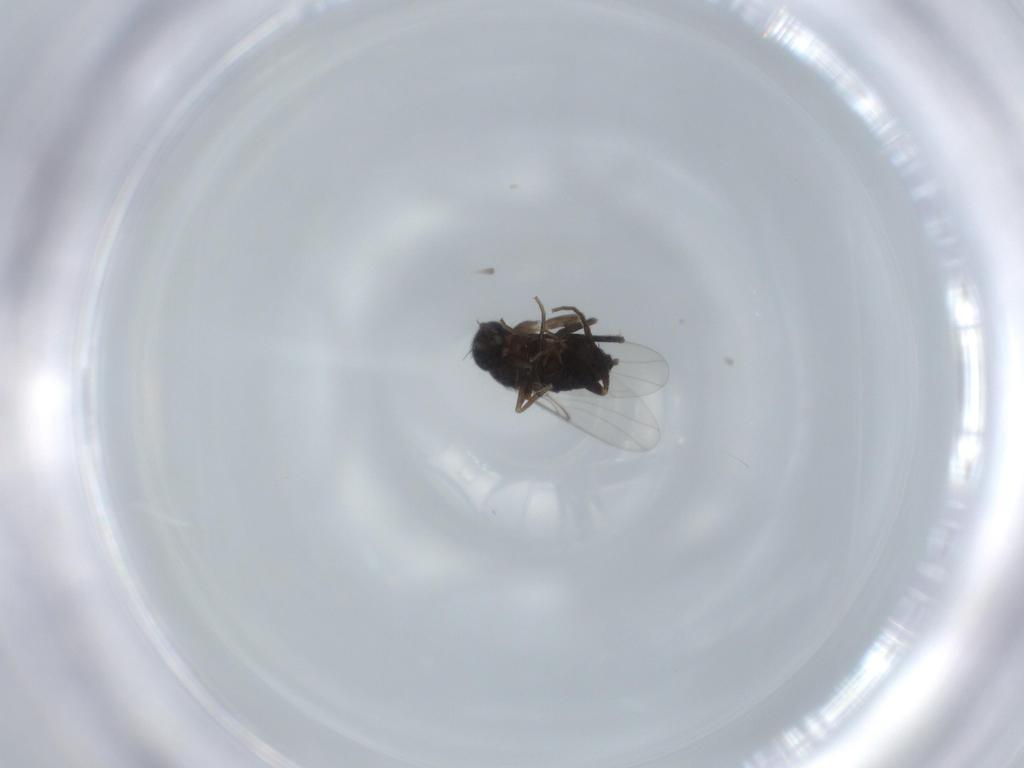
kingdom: Animalia
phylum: Arthropoda
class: Insecta
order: Diptera
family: Phoridae
